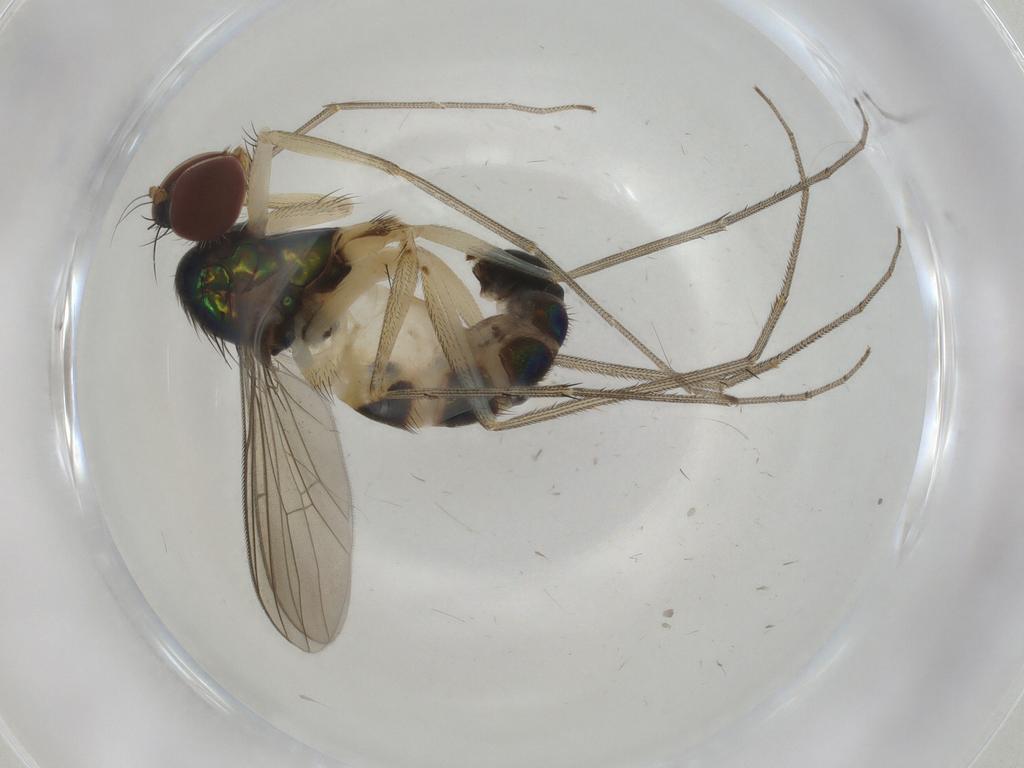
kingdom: Animalia
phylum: Arthropoda
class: Insecta
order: Diptera
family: Dolichopodidae
